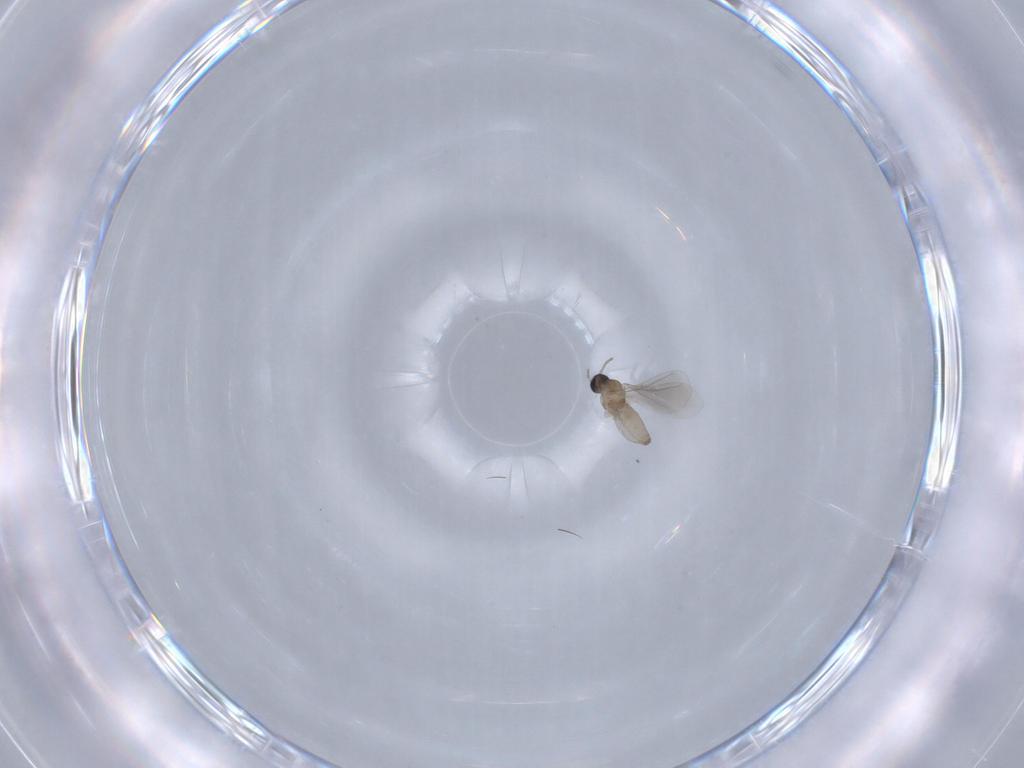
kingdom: Animalia
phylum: Arthropoda
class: Insecta
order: Diptera
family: Cecidomyiidae
